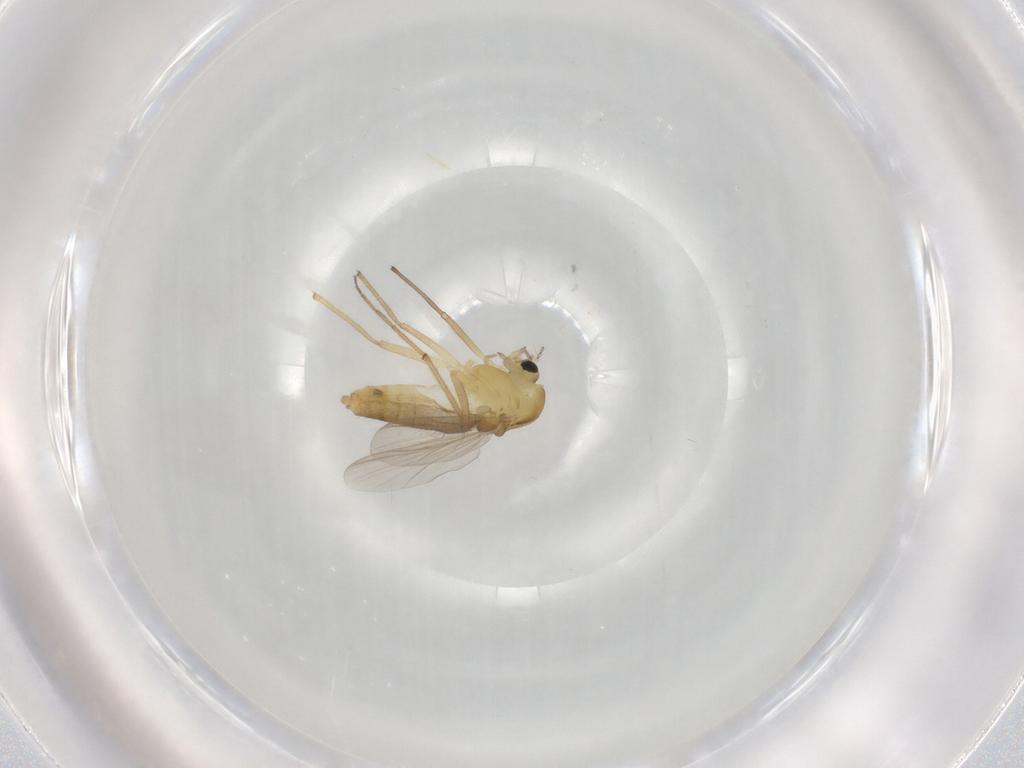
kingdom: Animalia
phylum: Arthropoda
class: Insecta
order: Diptera
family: Chironomidae
